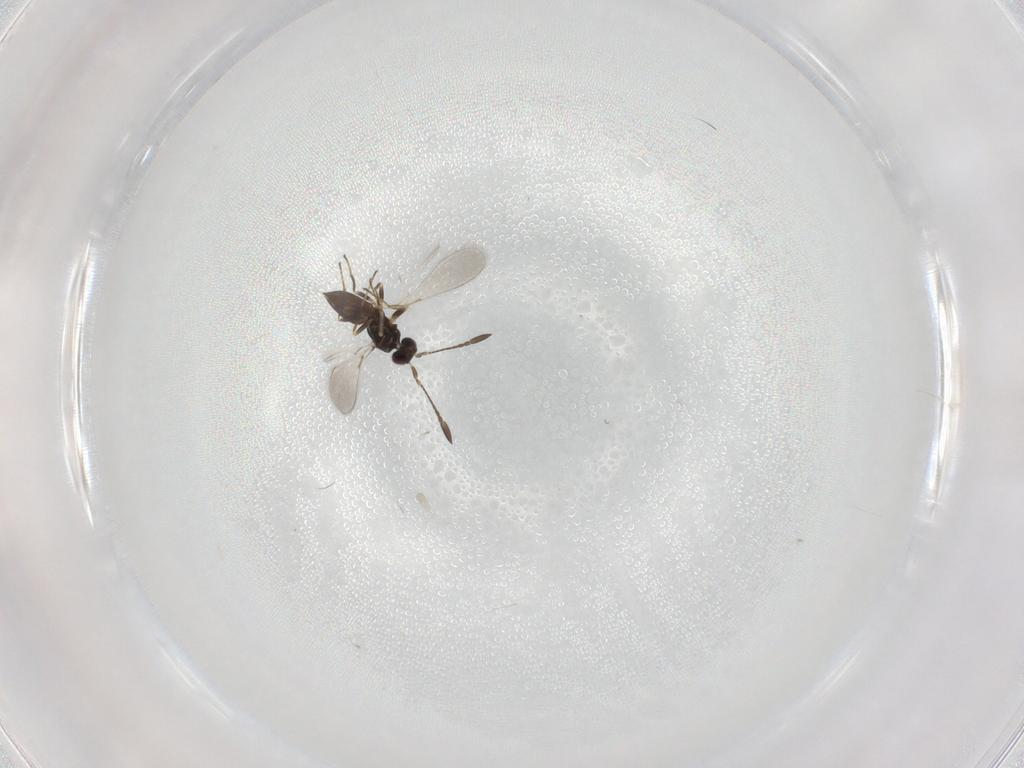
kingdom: Animalia
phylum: Arthropoda
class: Insecta
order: Hymenoptera
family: Mymaridae
